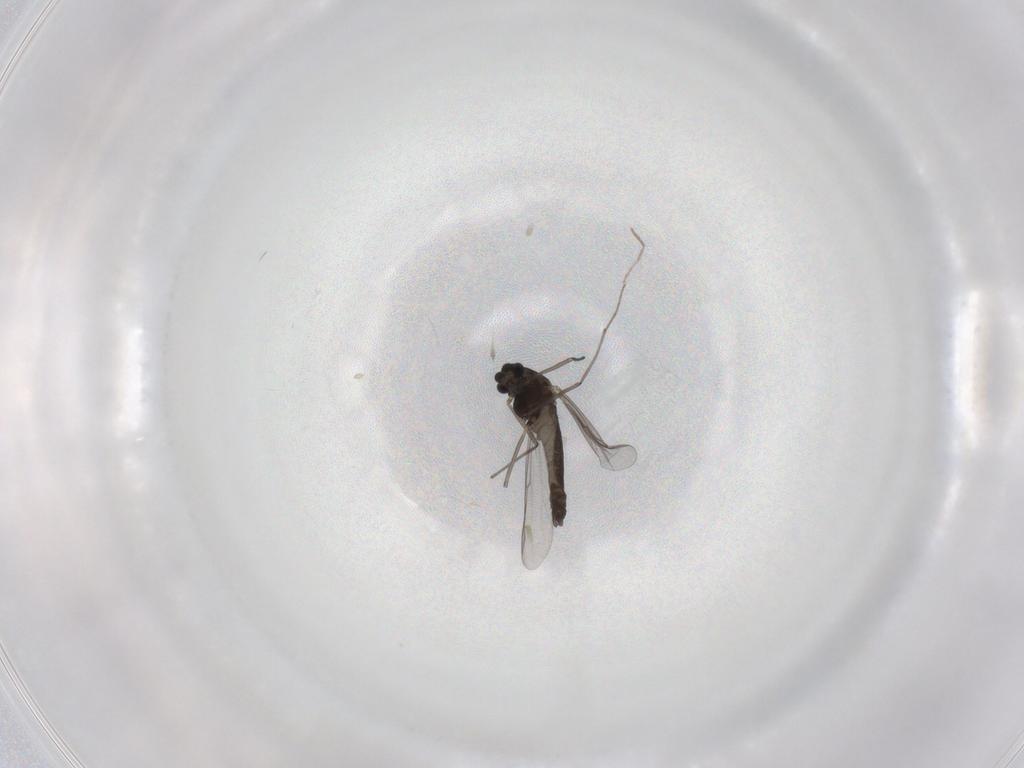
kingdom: Animalia
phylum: Arthropoda
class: Insecta
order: Diptera
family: Chironomidae
